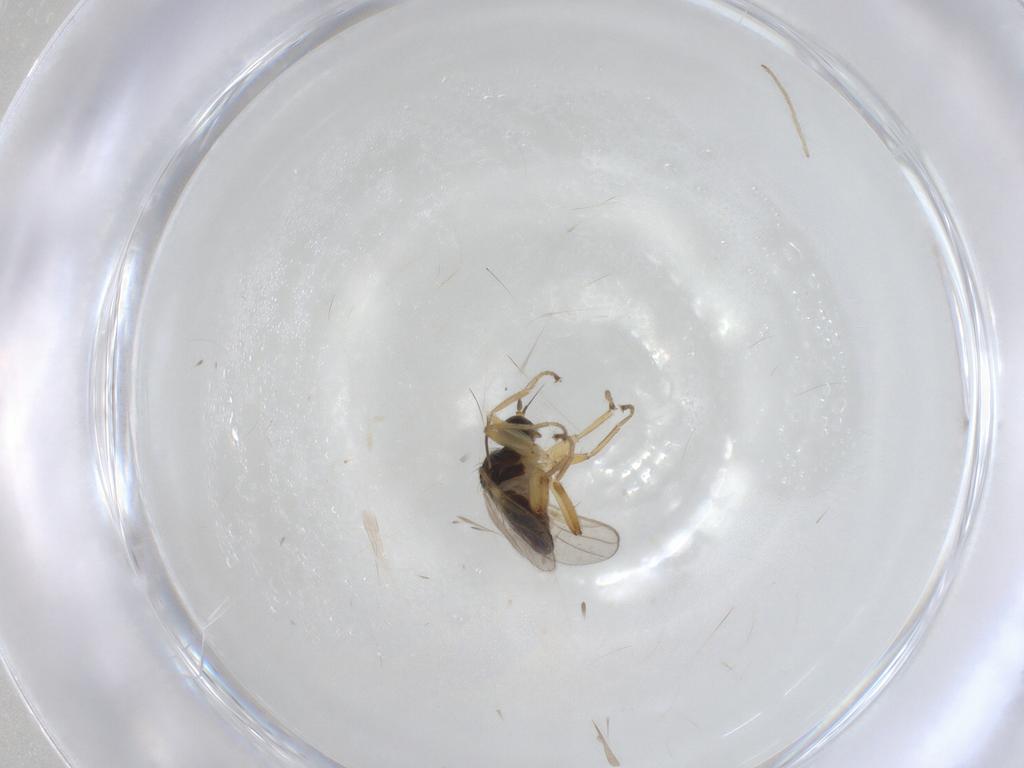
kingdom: Animalia
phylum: Arthropoda
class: Insecta
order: Diptera
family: Hybotidae
